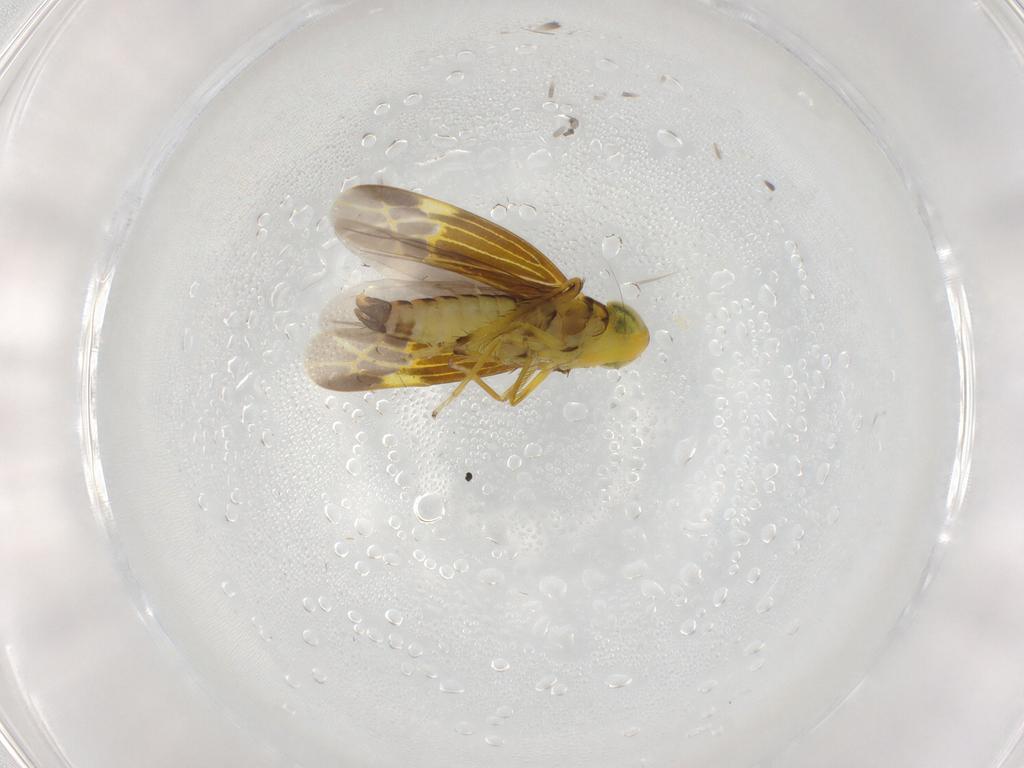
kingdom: Animalia
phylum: Arthropoda
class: Insecta
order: Hemiptera
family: Cicadellidae
